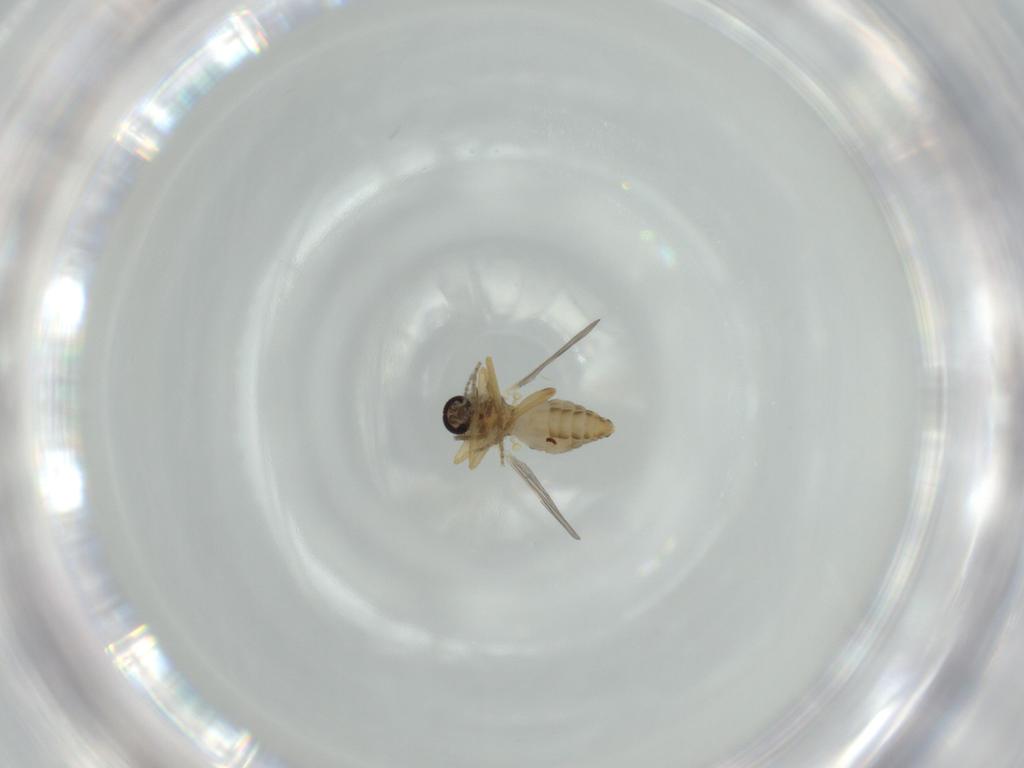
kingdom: Animalia
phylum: Arthropoda
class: Insecta
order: Diptera
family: Ceratopogonidae
